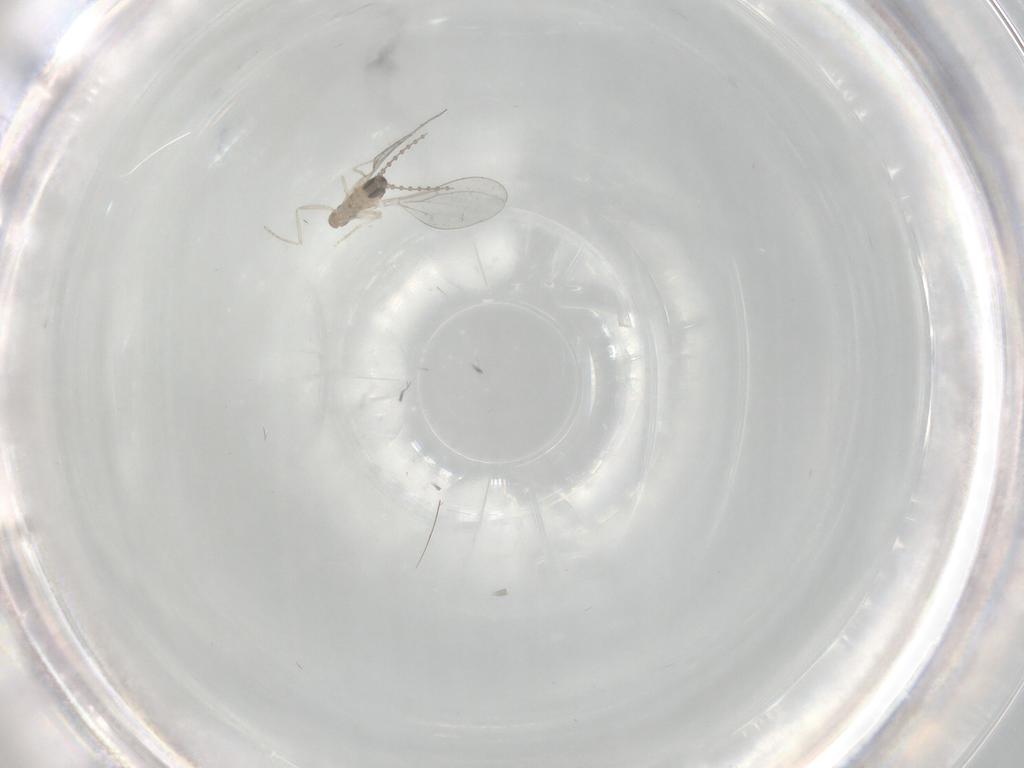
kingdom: Animalia
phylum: Arthropoda
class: Insecta
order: Diptera
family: Cecidomyiidae
